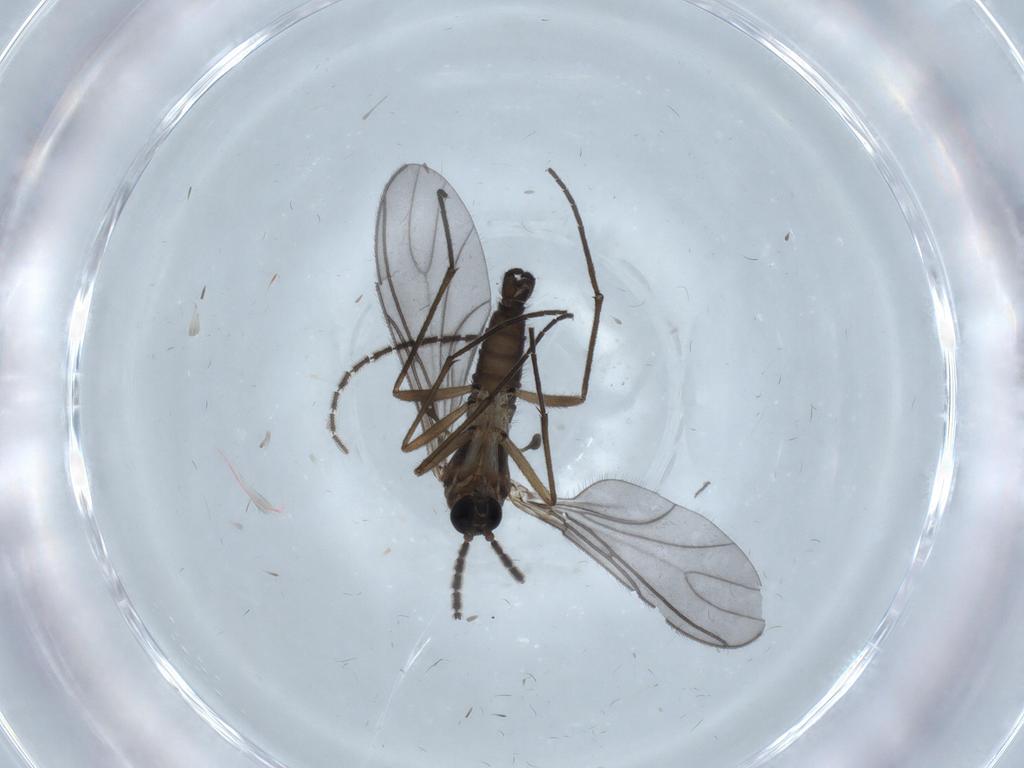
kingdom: Animalia
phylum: Arthropoda
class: Insecta
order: Diptera
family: Sciaridae
